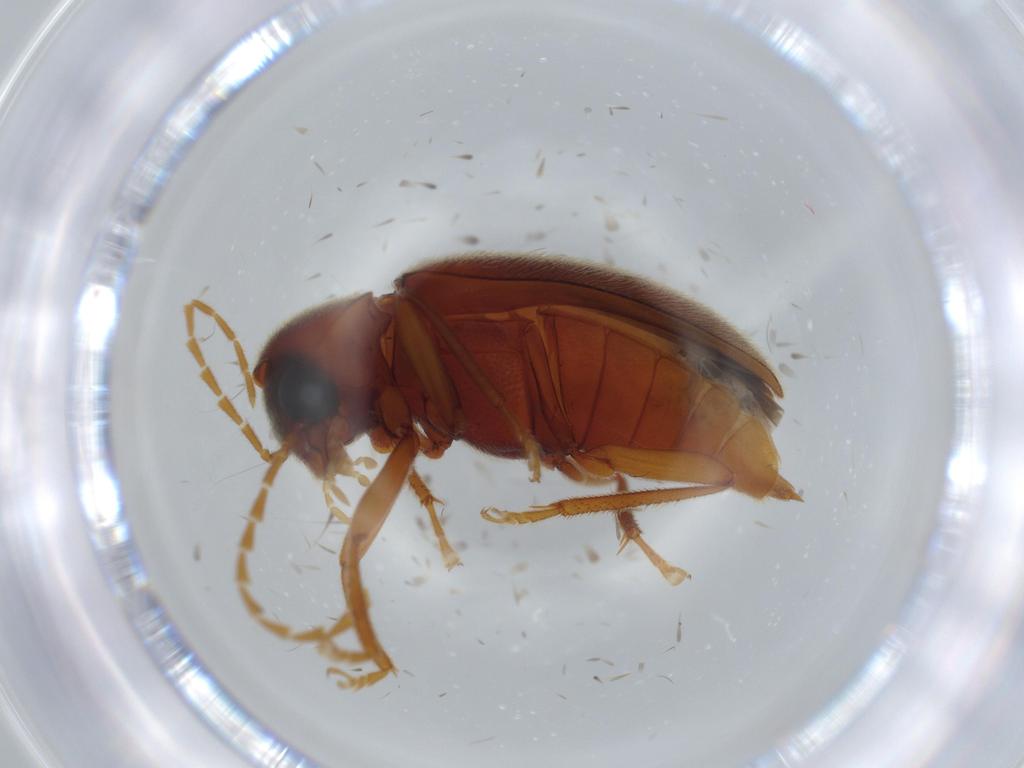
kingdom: Animalia
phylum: Arthropoda
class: Insecta
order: Coleoptera
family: Ptilodactylidae
